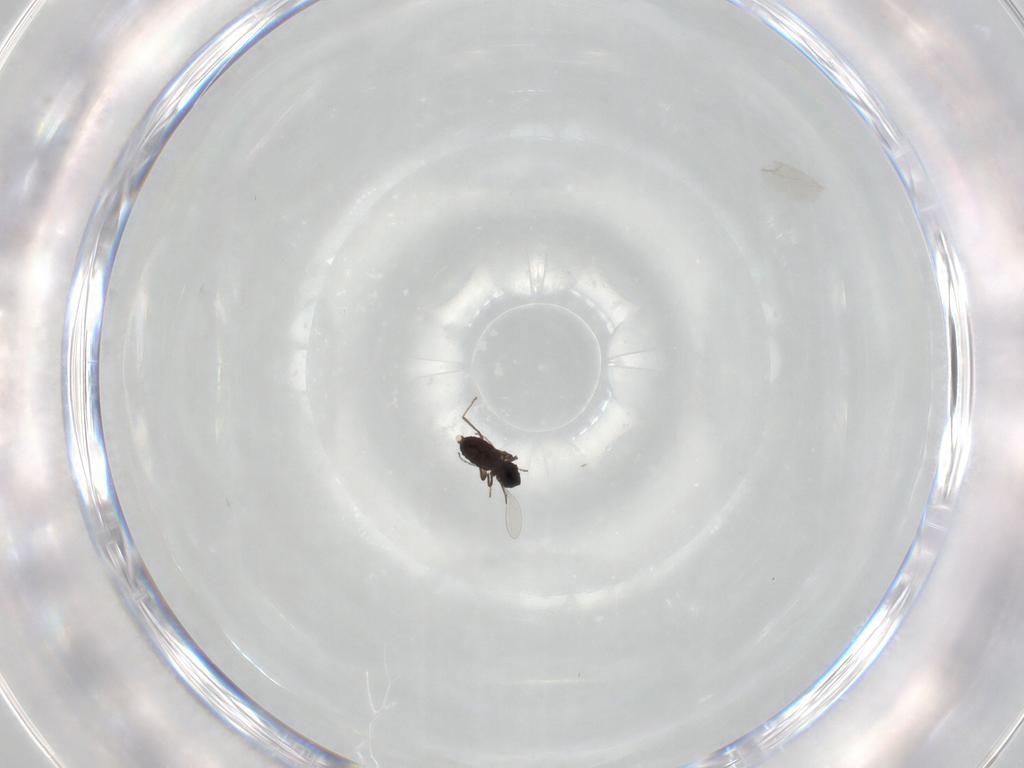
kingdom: Animalia
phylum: Arthropoda
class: Insecta
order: Diptera
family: Ceratopogonidae
